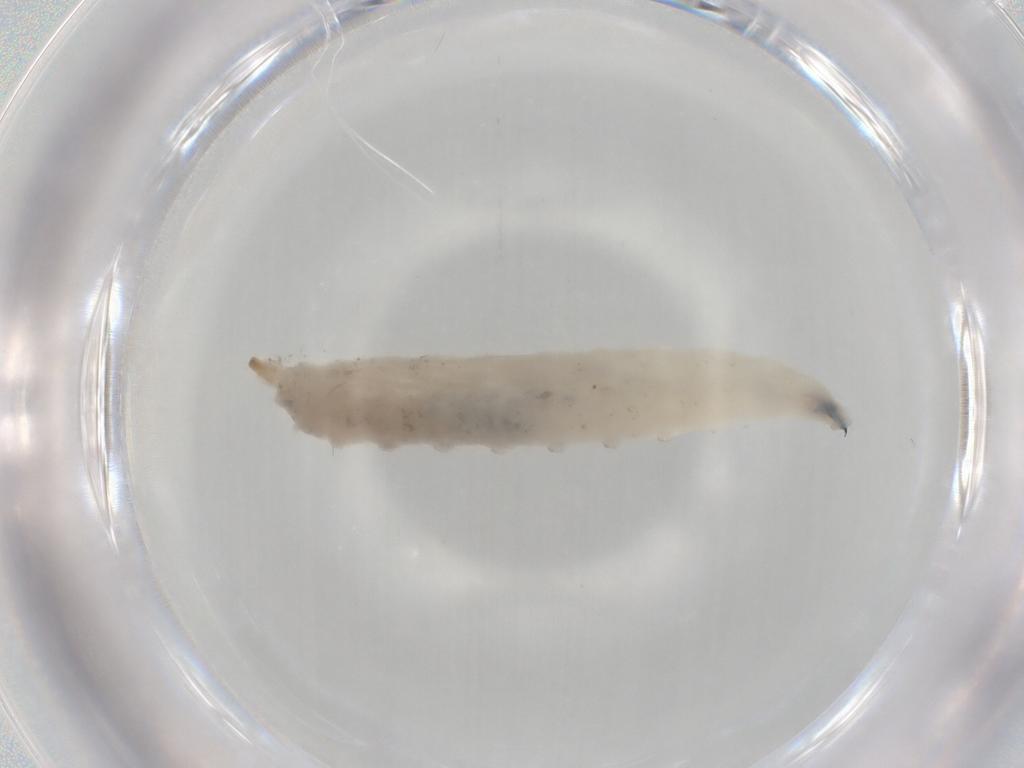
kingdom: Animalia
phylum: Arthropoda
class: Insecta
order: Diptera
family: Drosophilidae
